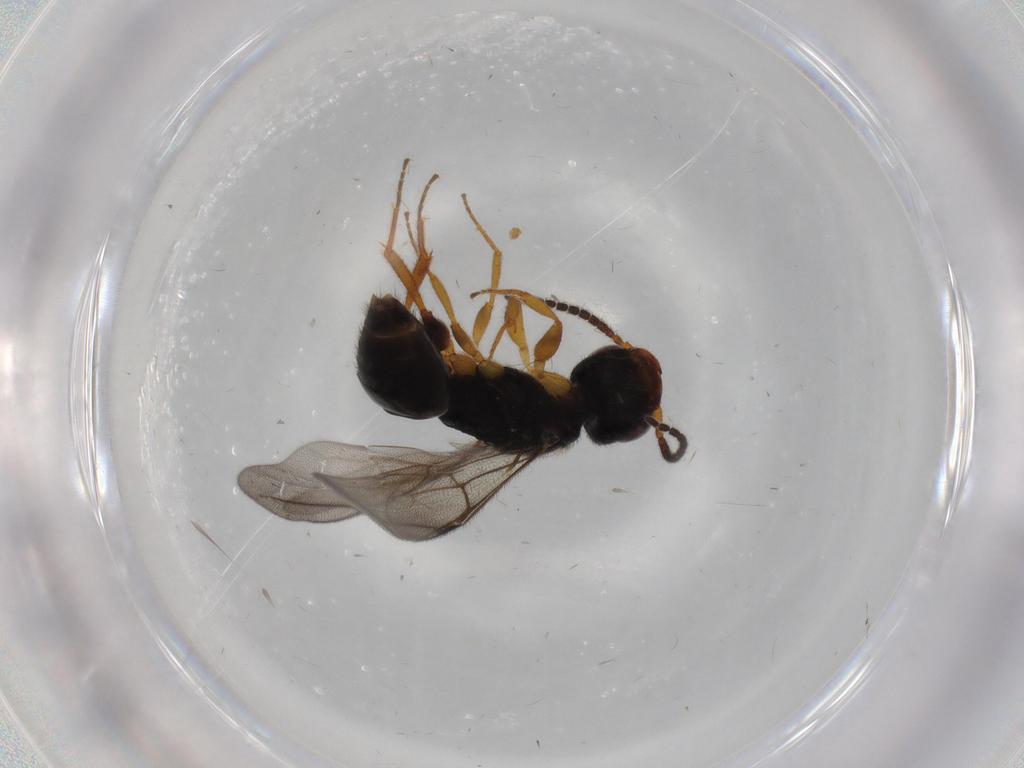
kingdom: Animalia
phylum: Arthropoda
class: Insecta
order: Hymenoptera
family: Bethylidae
